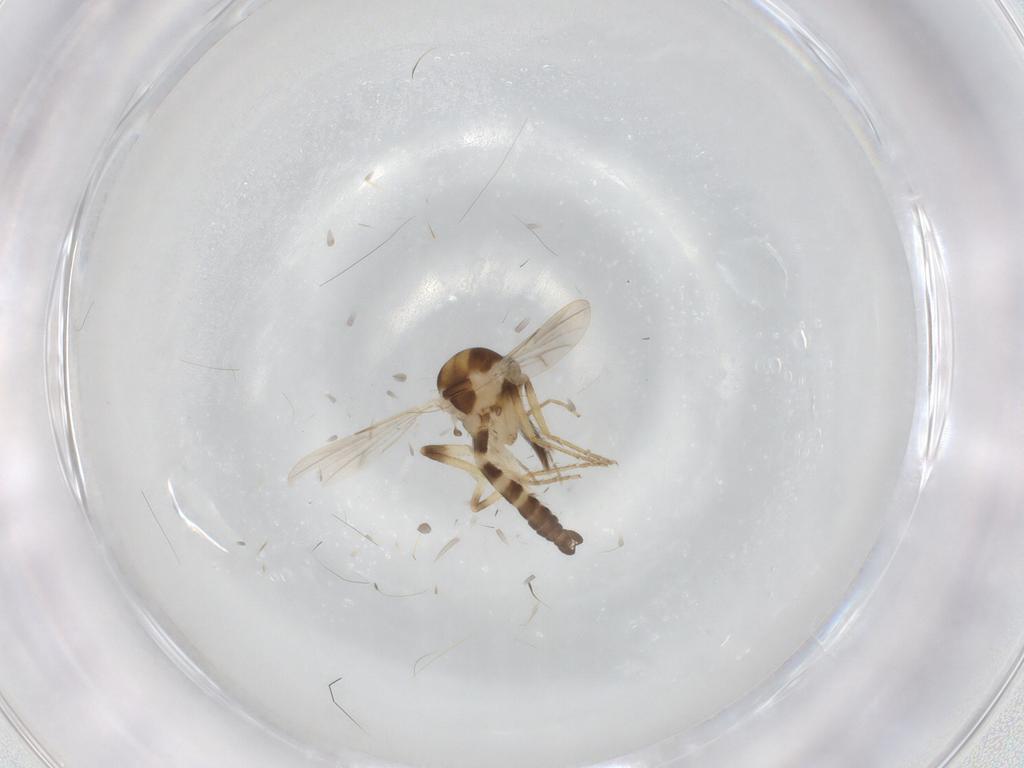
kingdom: Animalia
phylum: Arthropoda
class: Insecta
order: Diptera
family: Ceratopogonidae
